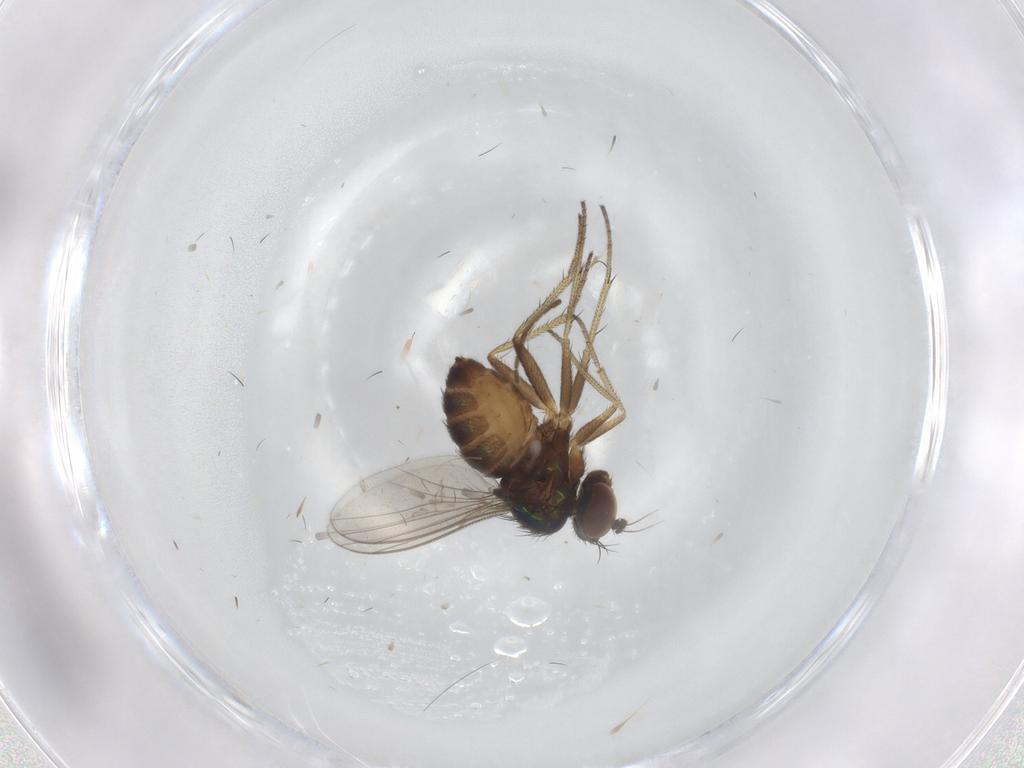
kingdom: Animalia
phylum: Arthropoda
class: Insecta
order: Diptera
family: Dolichopodidae
